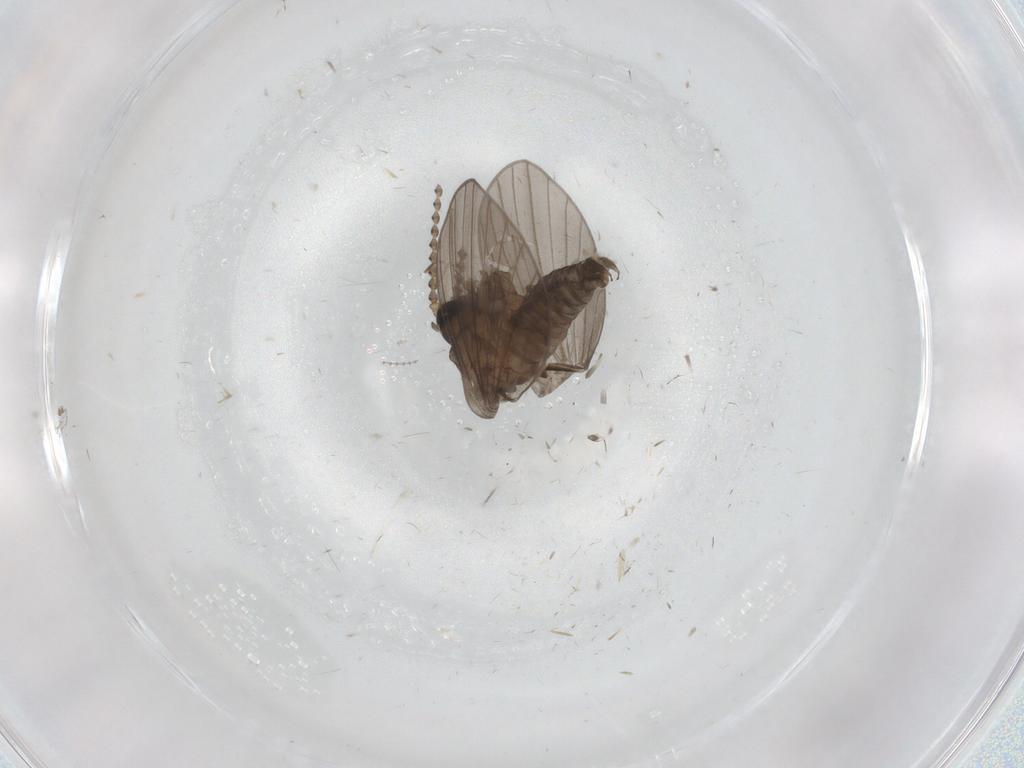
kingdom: Animalia
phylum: Arthropoda
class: Insecta
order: Diptera
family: Psychodidae
